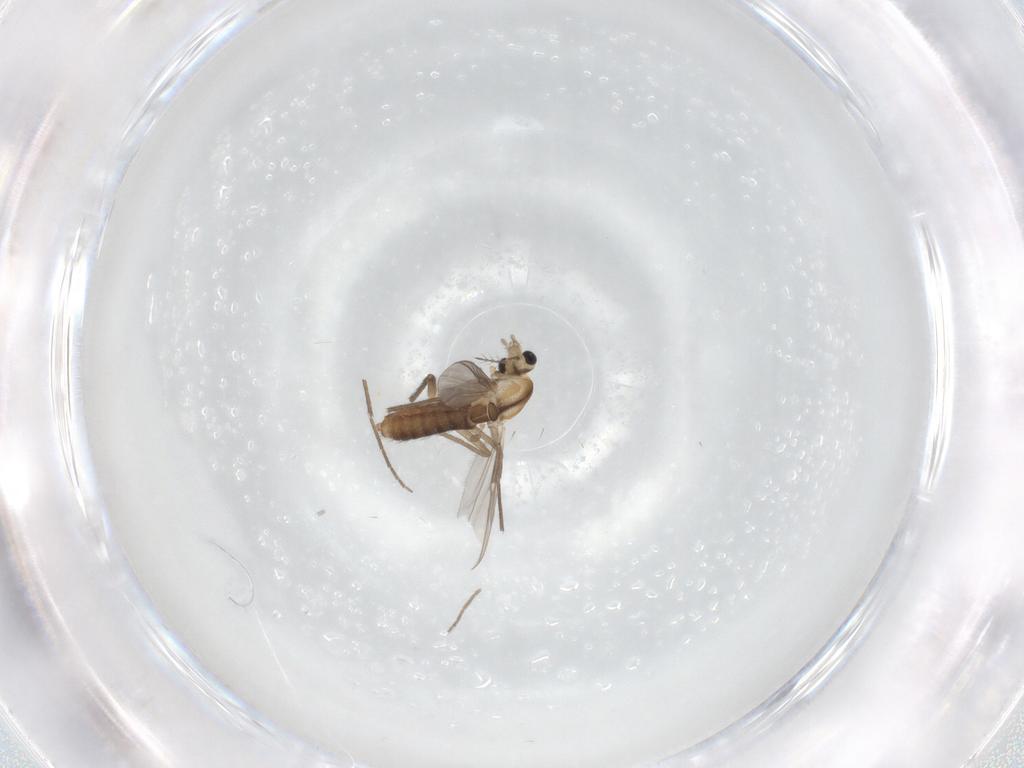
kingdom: Animalia
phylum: Arthropoda
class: Insecta
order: Diptera
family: Chironomidae
